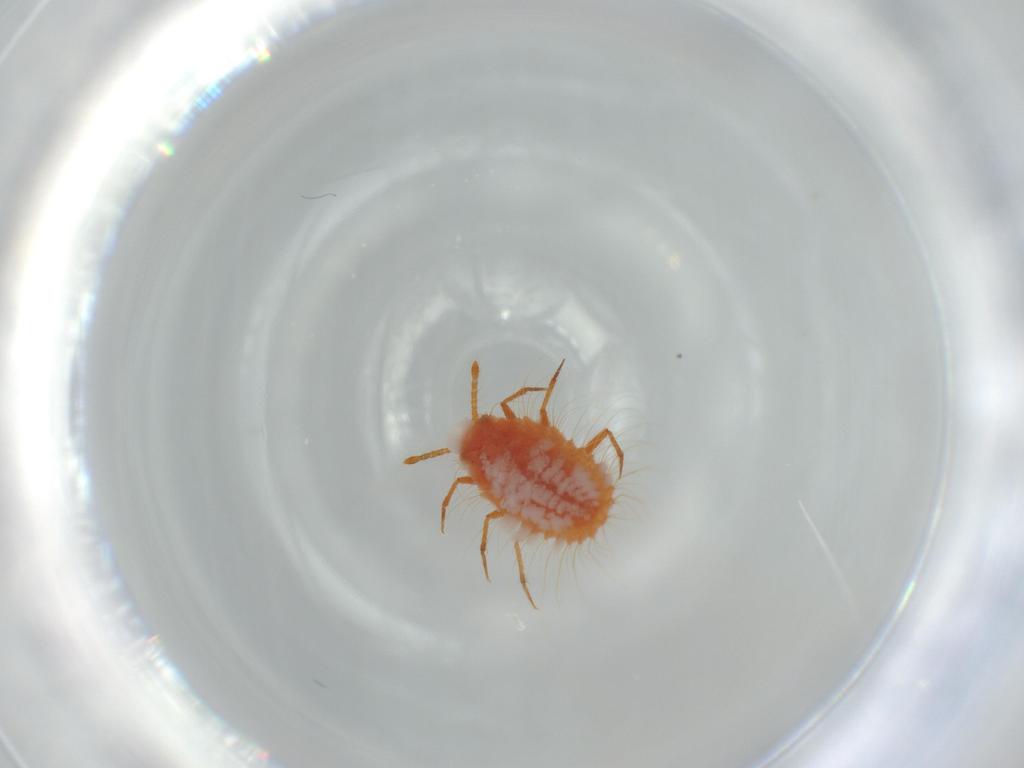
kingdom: Animalia
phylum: Arthropoda
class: Insecta
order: Hemiptera
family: Coccoidea_incertae_sedis
